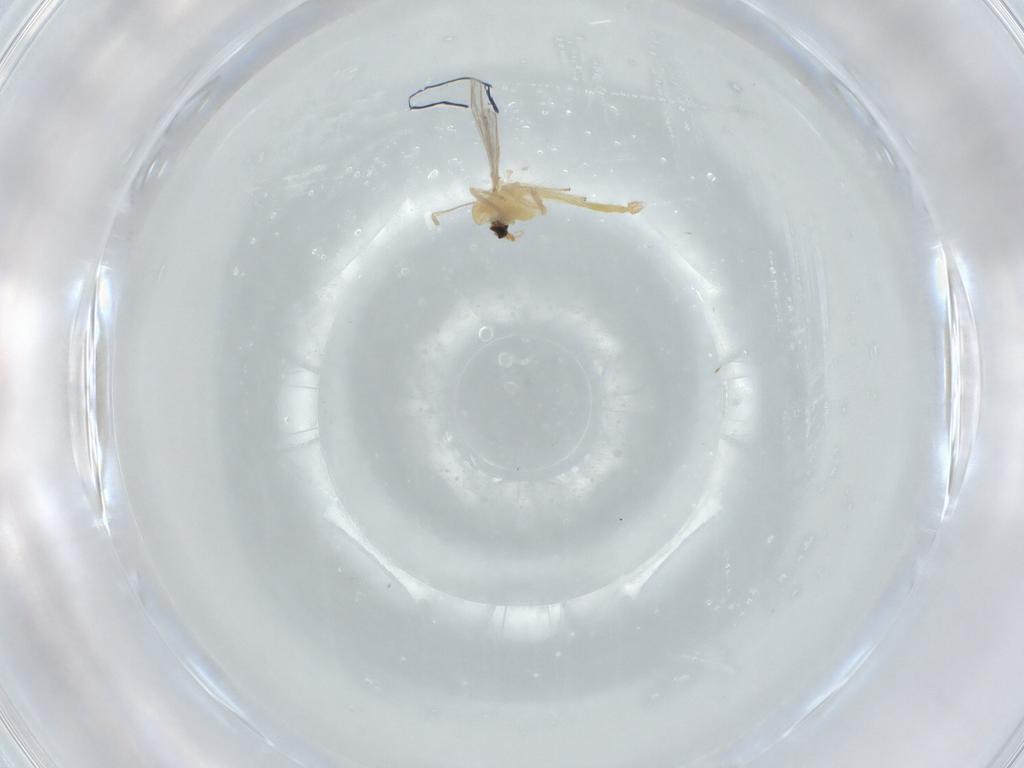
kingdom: Animalia
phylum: Arthropoda
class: Insecta
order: Diptera
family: Chironomidae
